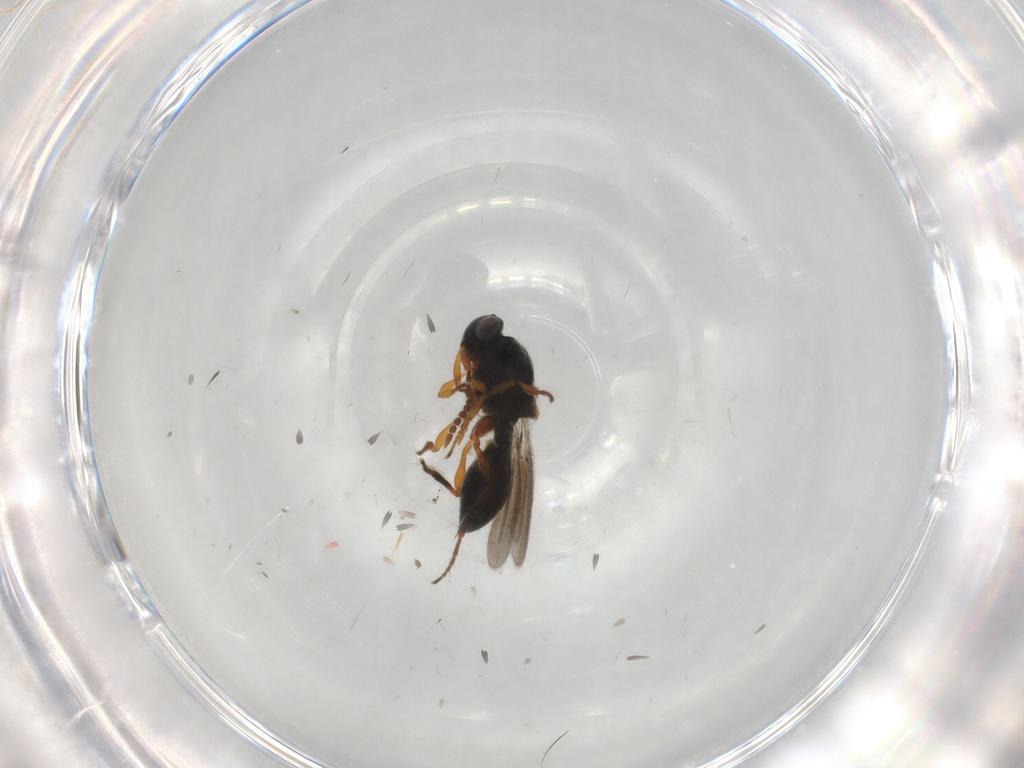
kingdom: Animalia
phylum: Arthropoda
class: Insecta
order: Hymenoptera
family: Platygastridae
